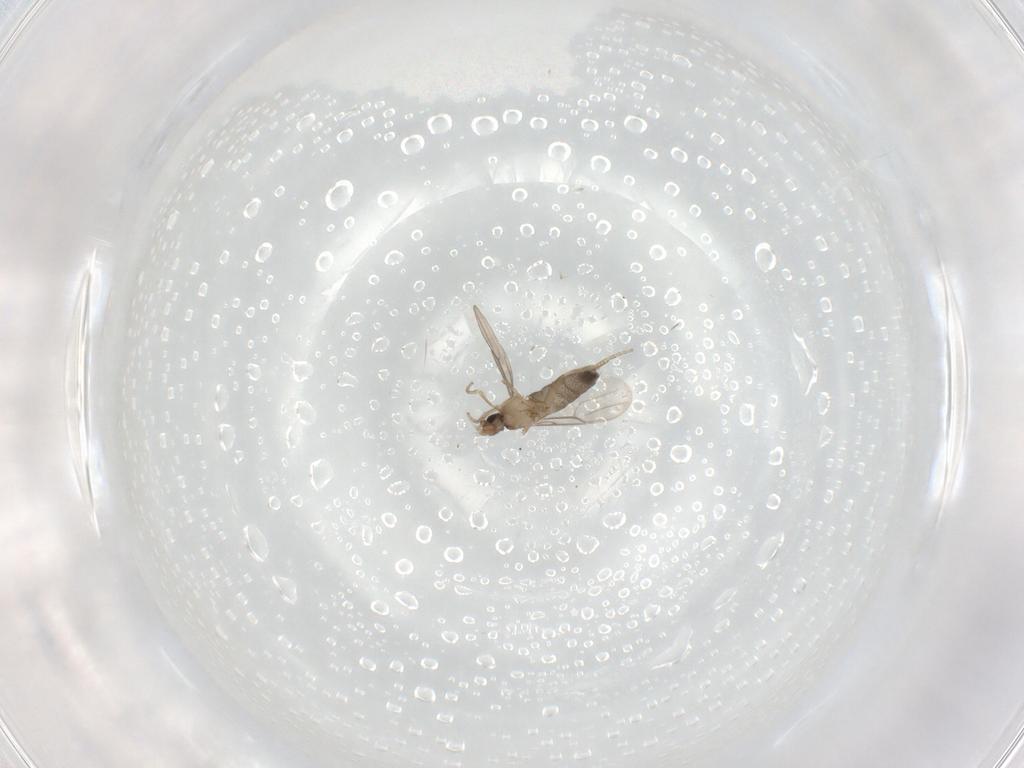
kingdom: Animalia
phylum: Arthropoda
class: Insecta
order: Diptera
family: Phoridae
